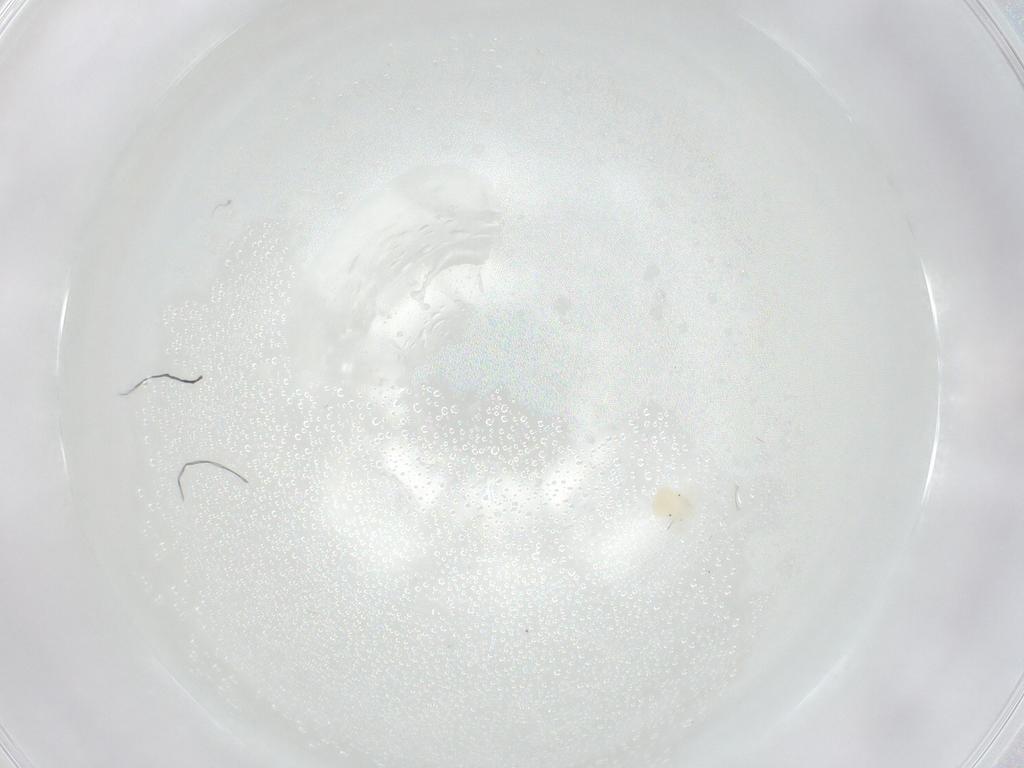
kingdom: Animalia
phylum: Arthropoda
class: Arachnida
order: Trombidiformes
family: Anystidae
